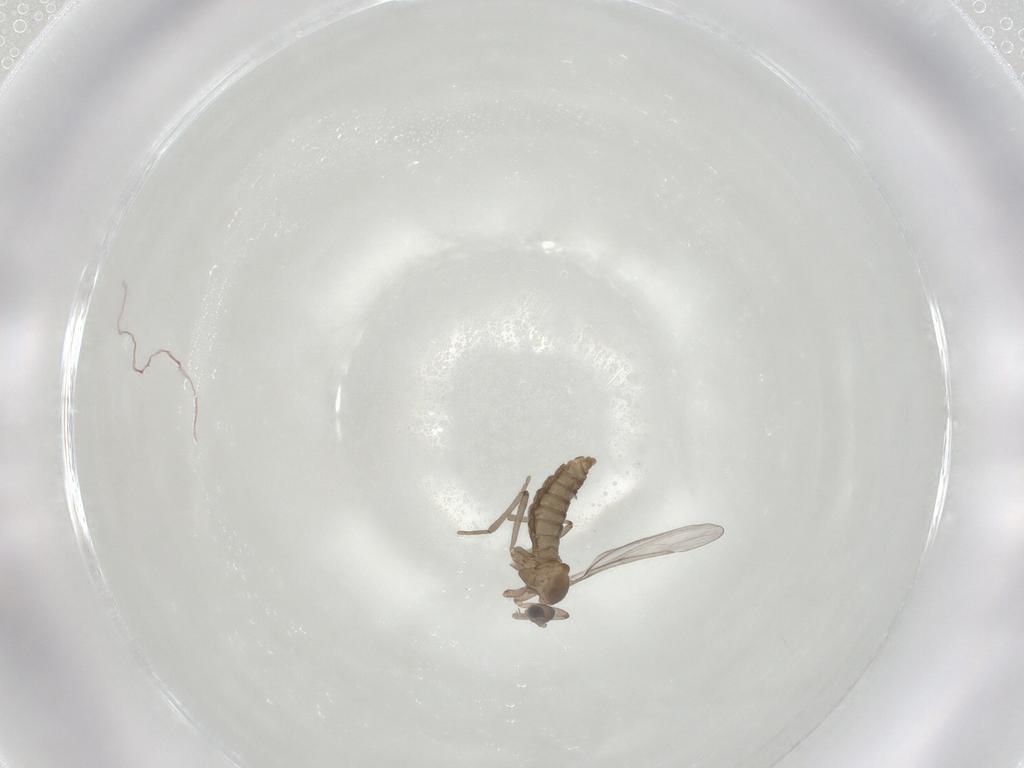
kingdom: Animalia
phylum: Arthropoda
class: Insecta
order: Diptera
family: Cecidomyiidae
